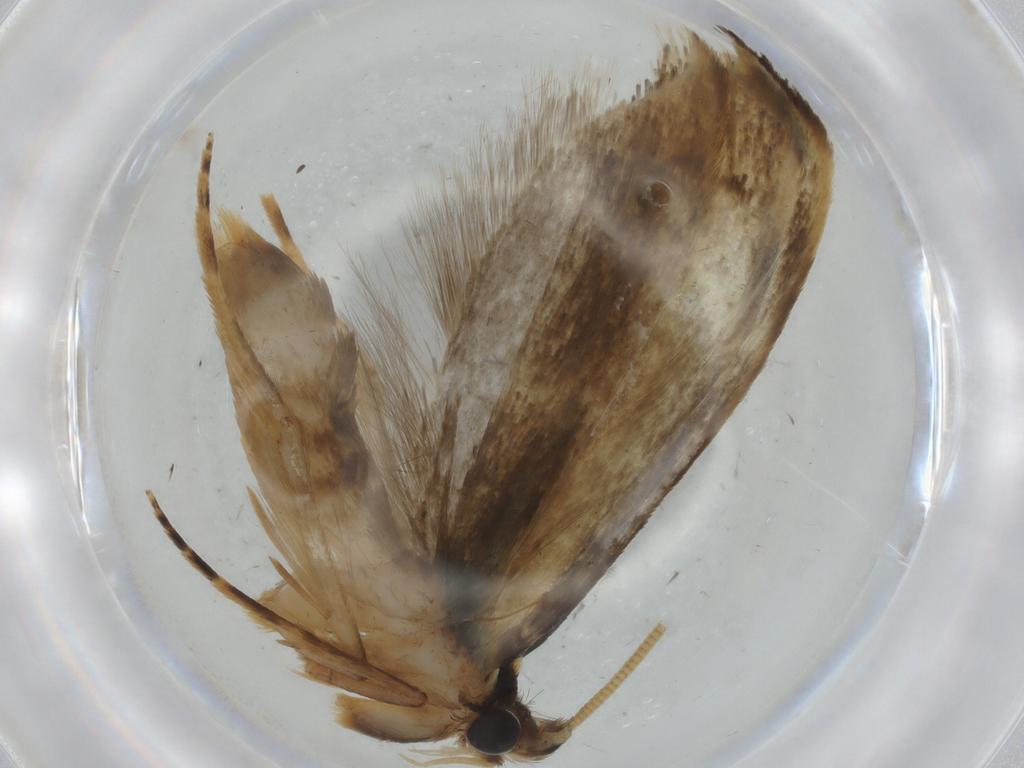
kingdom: Animalia
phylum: Arthropoda
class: Insecta
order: Lepidoptera
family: Tineidae
